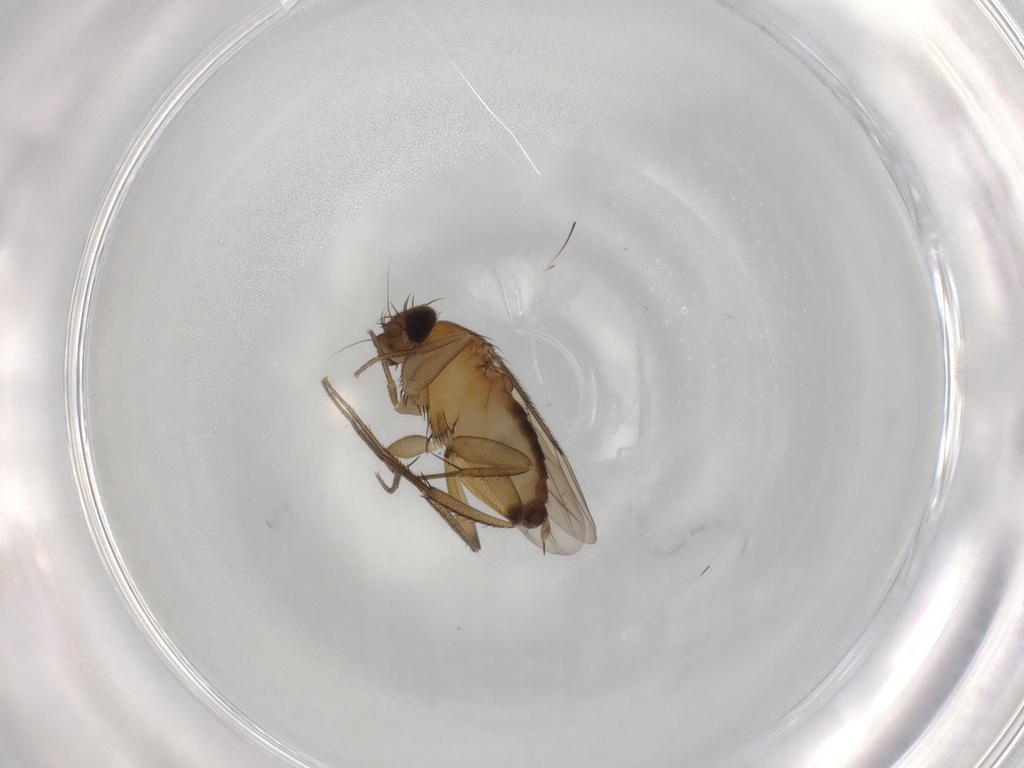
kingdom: Animalia
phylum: Arthropoda
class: Insecta
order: Diptera
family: Phoridae
